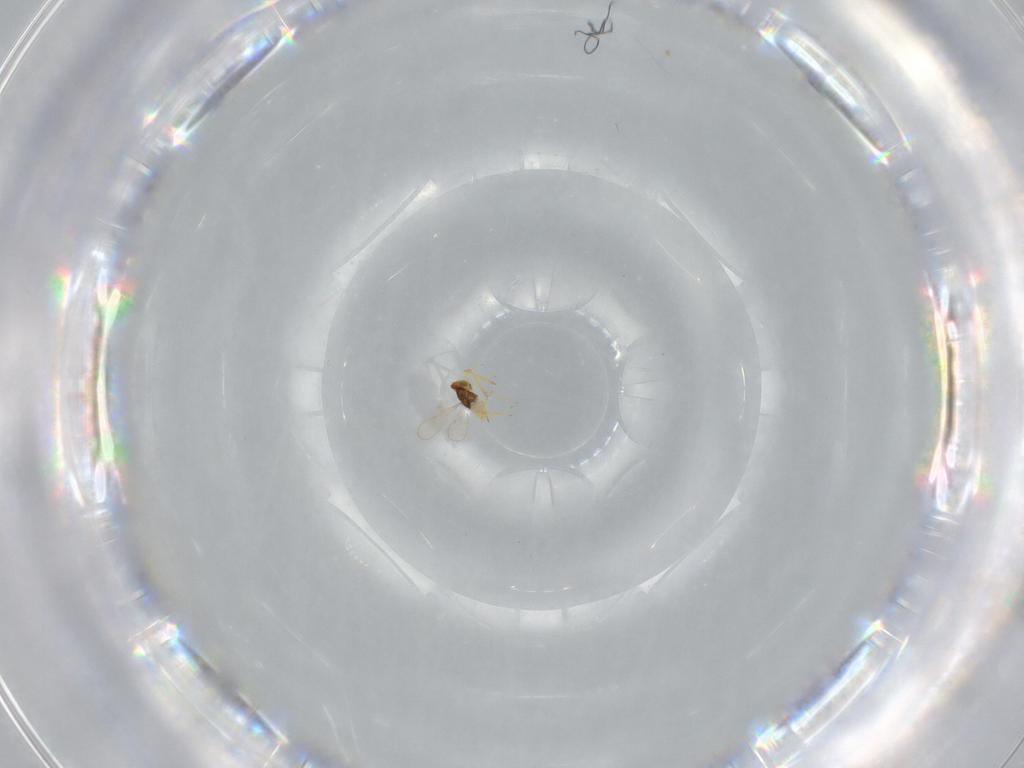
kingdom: Animalia
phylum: Arthropoda
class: Insecta
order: Hymenoptera
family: Aphelinidae
